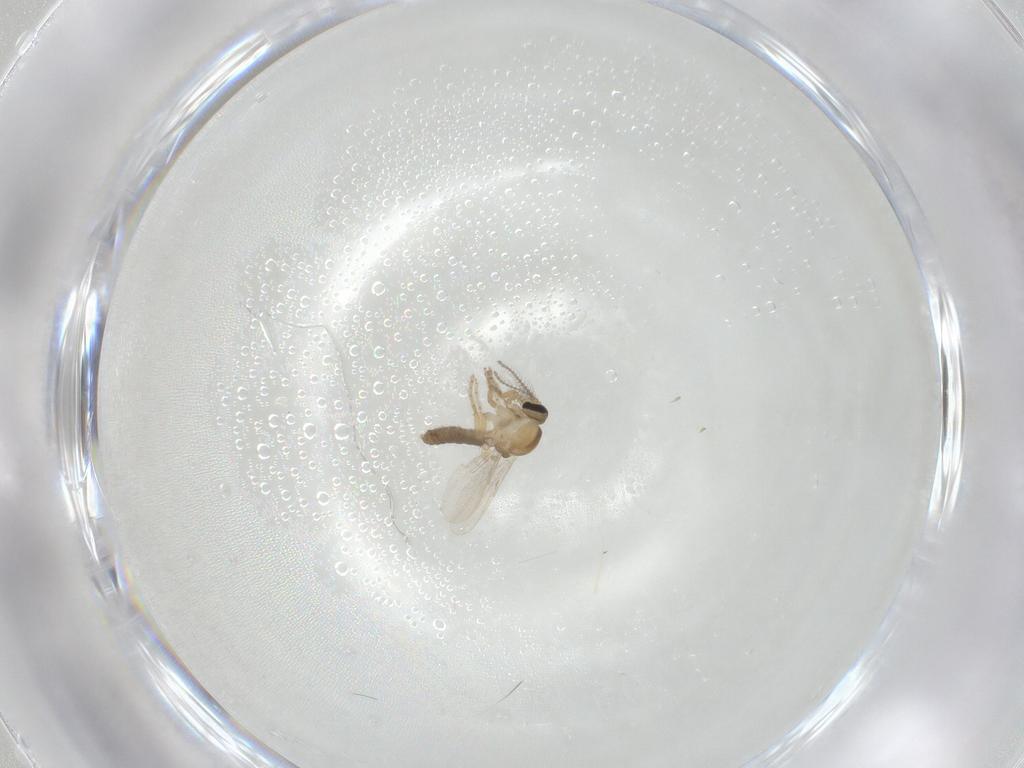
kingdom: Animalia
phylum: Arthropoda
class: Insecta
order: Diptera
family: Ceratopogonidae
